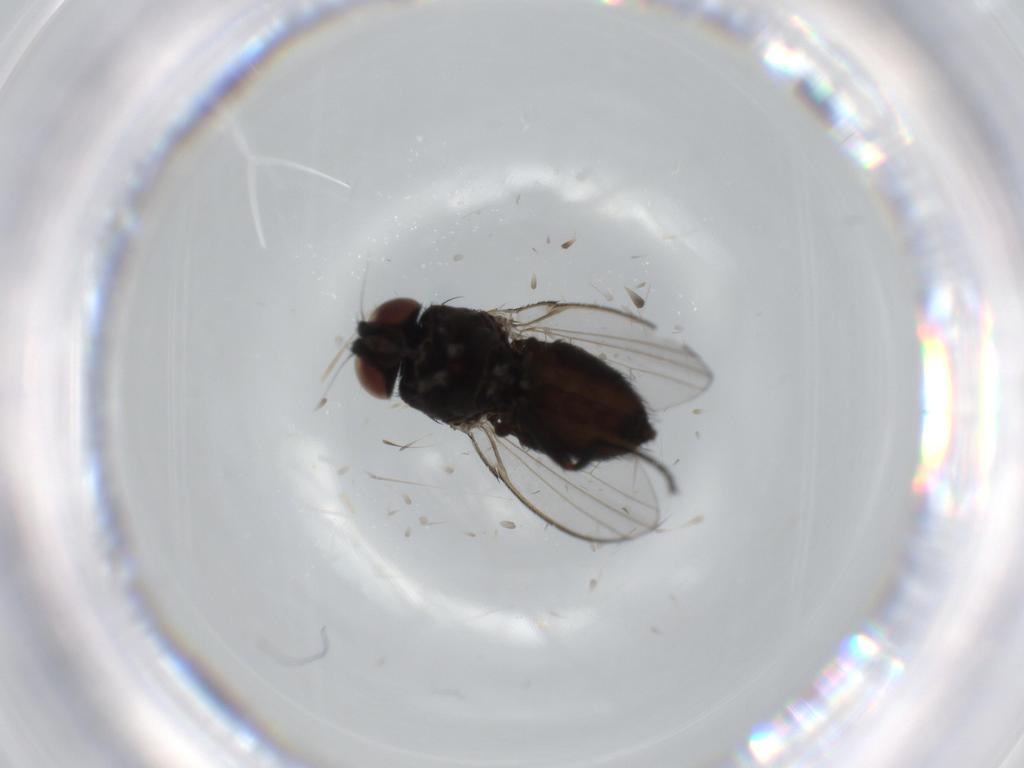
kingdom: Animalia
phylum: Arthropoda
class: Insecta
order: Diptera
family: Milichiidae
